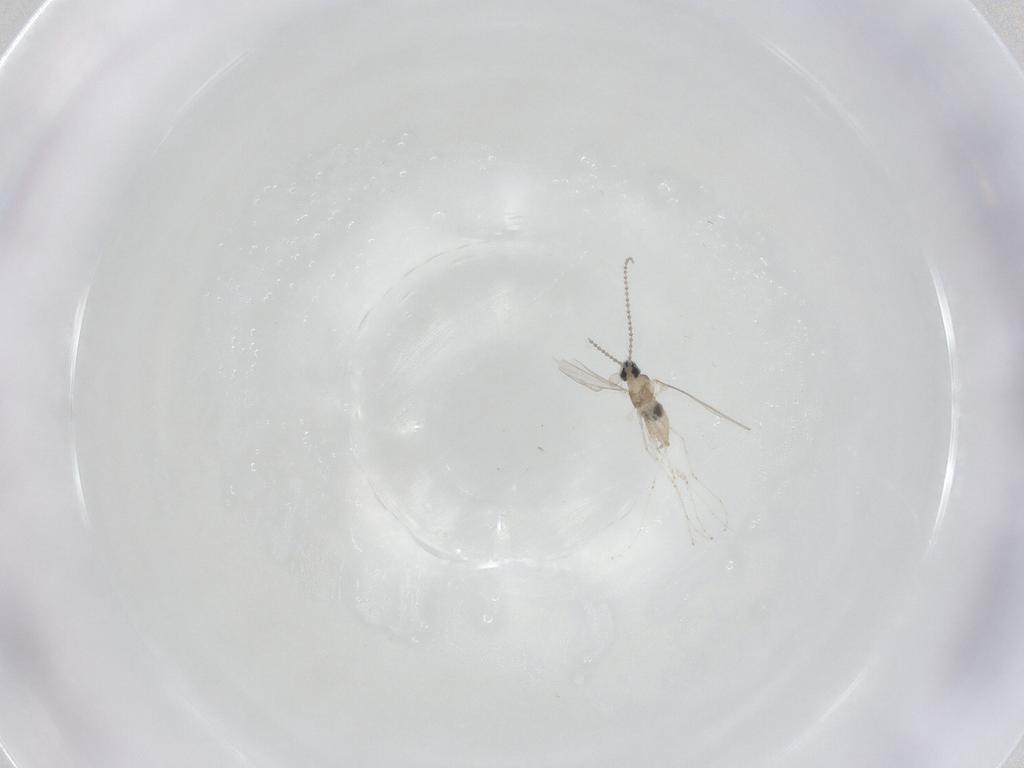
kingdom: Animalia
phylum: Arthropoda
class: Insecta
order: Diptera
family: Cecidomyiidae
